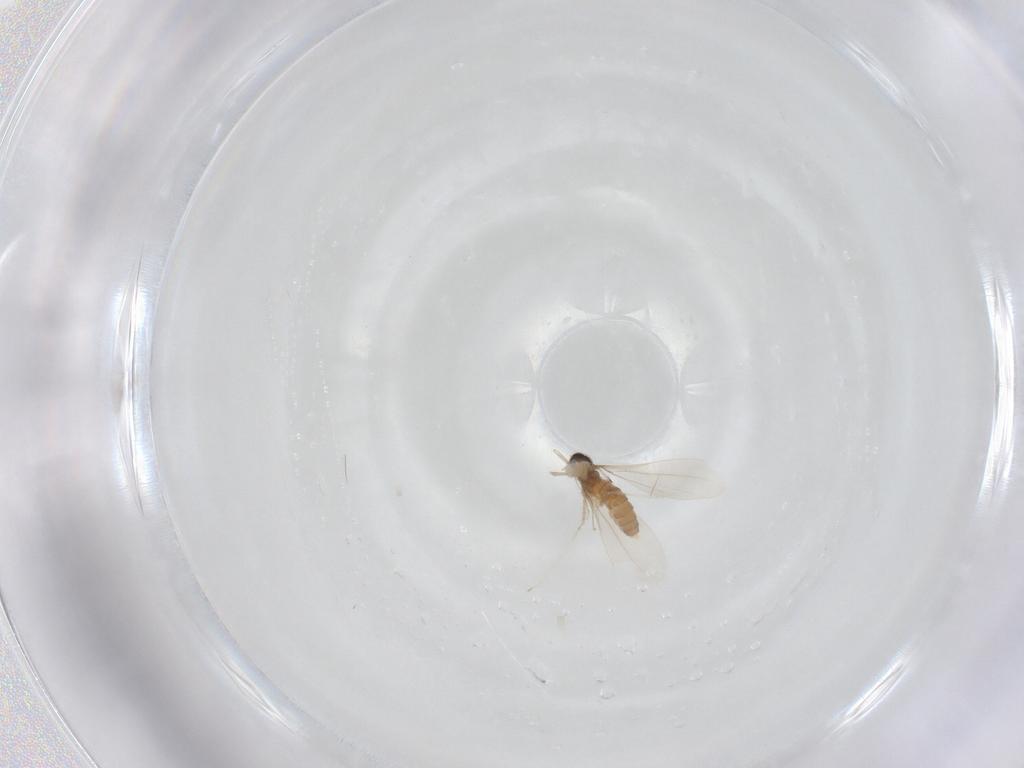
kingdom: Animalia
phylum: Arthropoda
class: Insecta
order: Diptera
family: Cecidomyiidae
